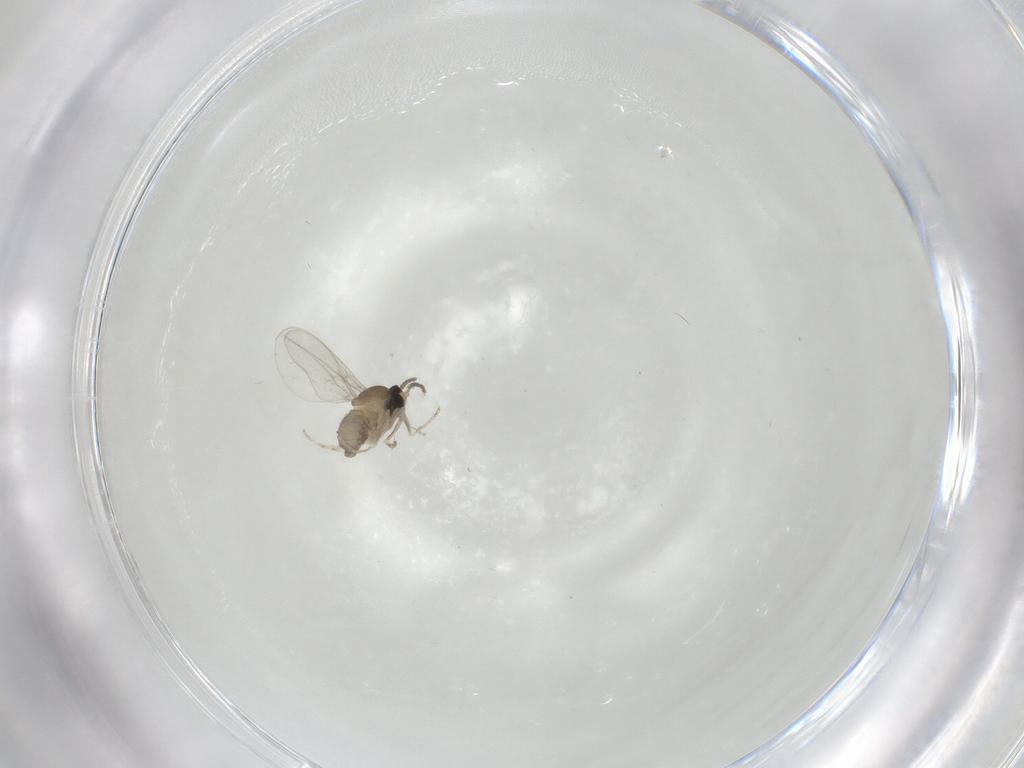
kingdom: Animalia
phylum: Arthropoda
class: Insecta
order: Diptera
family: Cecidomyiidae
